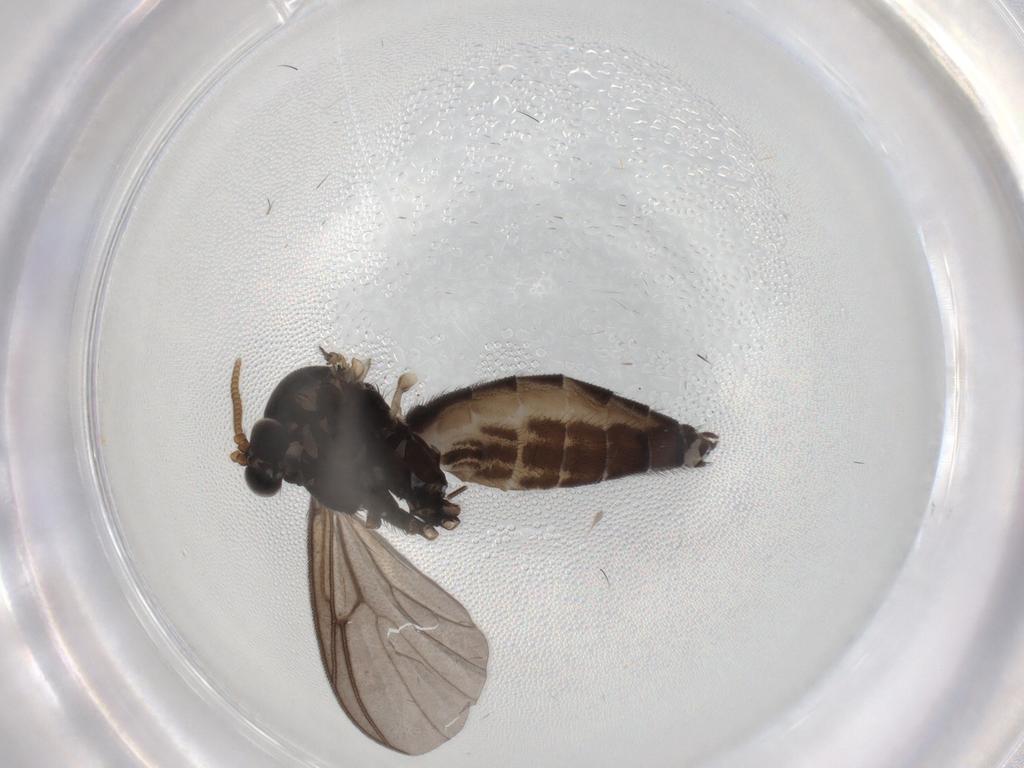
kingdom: Animalia
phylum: Arthropoda
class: Insecta
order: Diptera
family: Mycetophilidae
